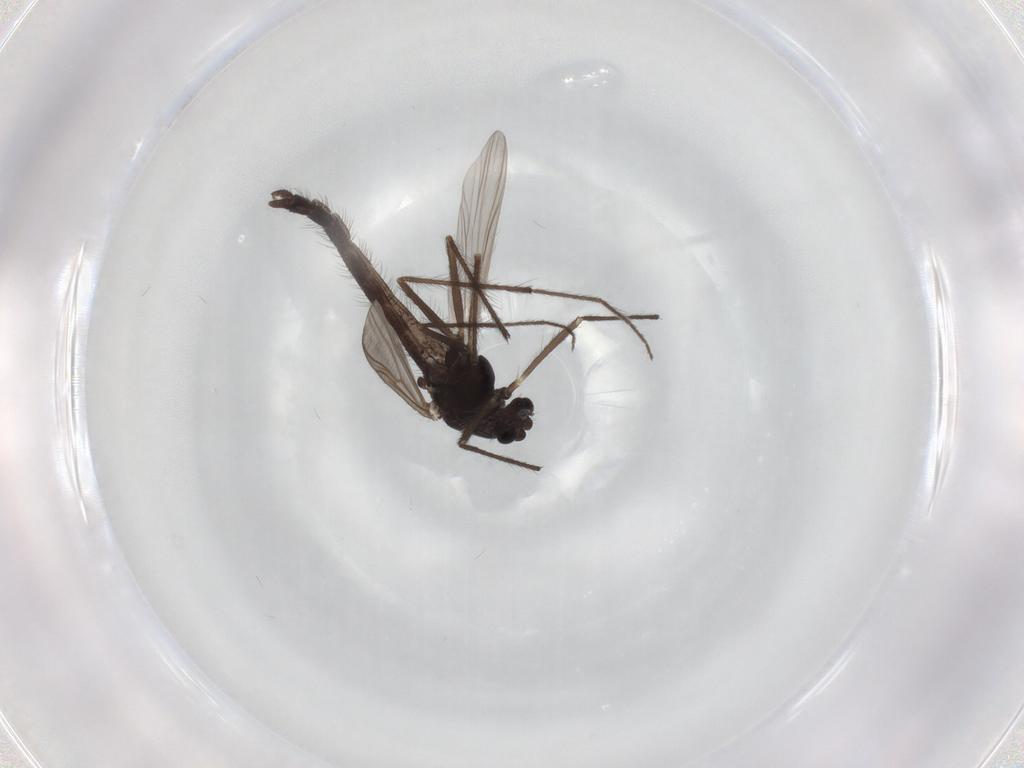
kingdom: Animalia
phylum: Arthropoda
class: Insecta
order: Diptera
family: Chironomidae
